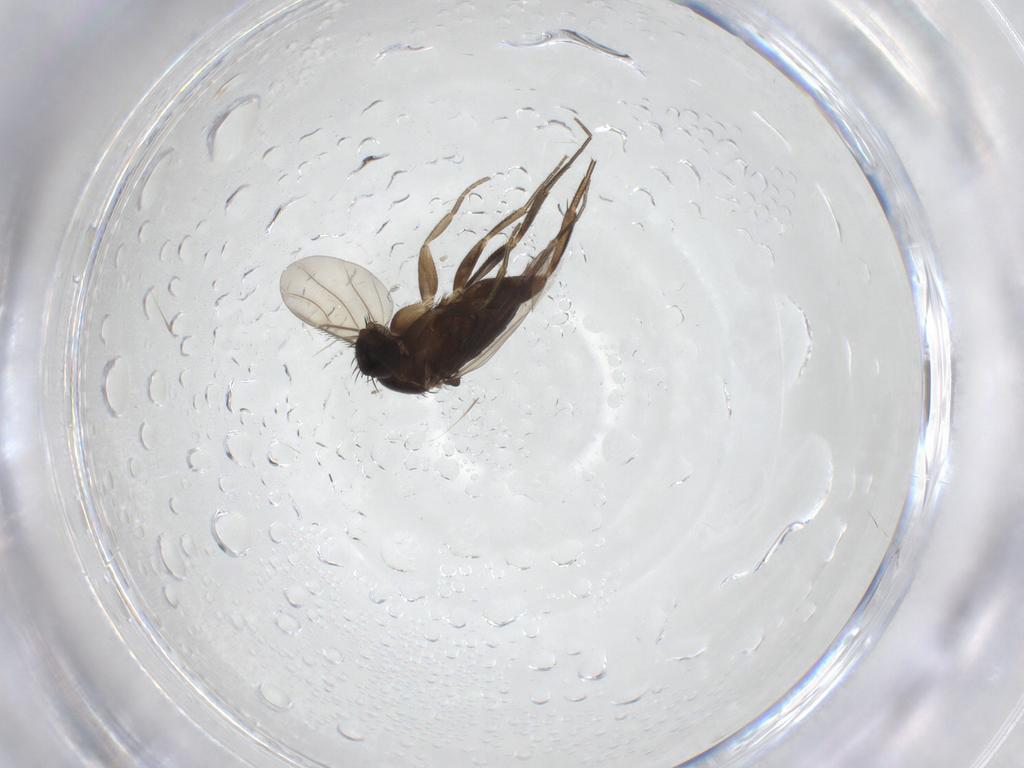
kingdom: Animalia
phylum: Arthropoda
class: Insecta
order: Diptera
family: Phoridae
